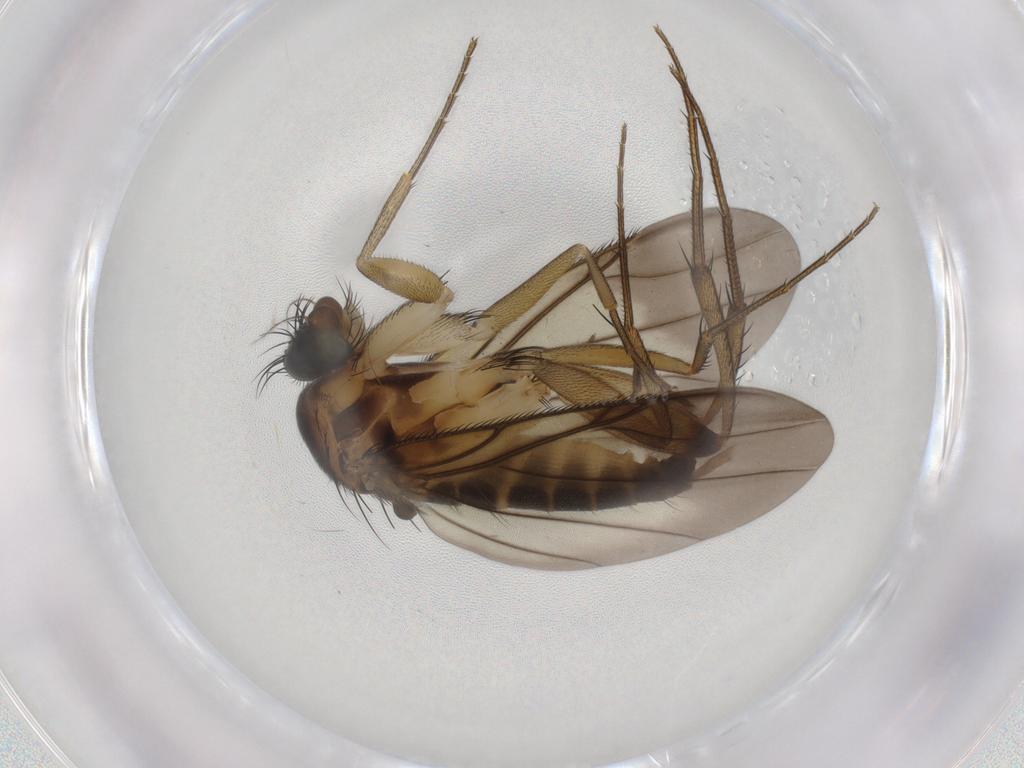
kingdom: Animalia
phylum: Arthropoda
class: Insecta
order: Diptera
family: Phoridae
